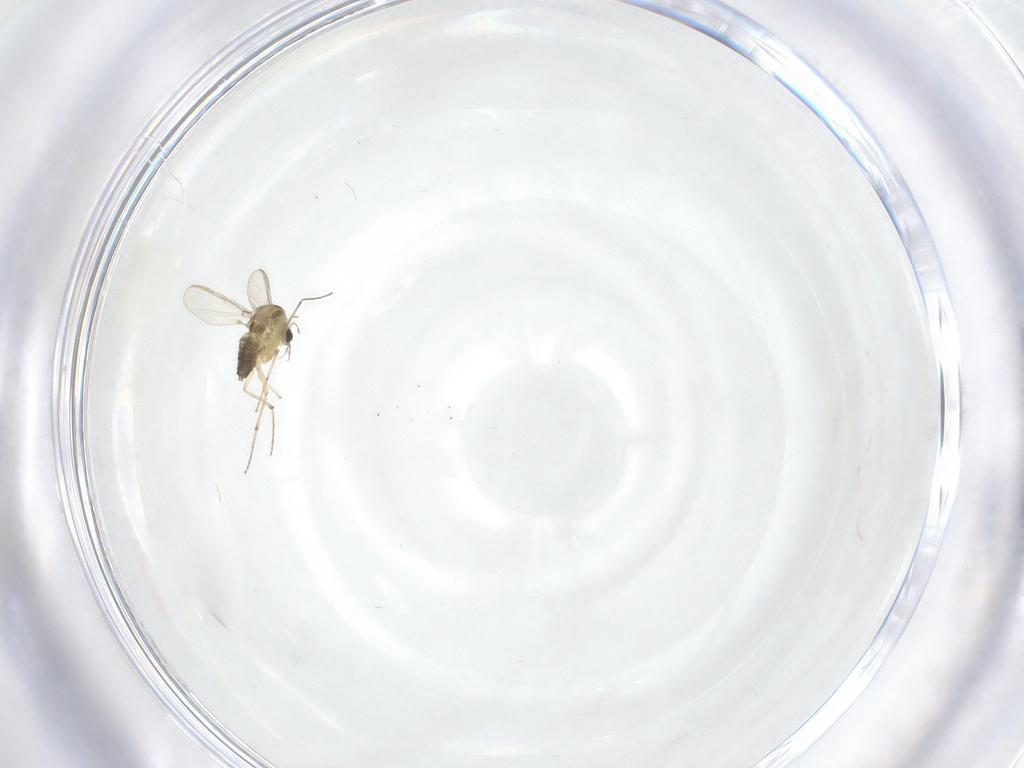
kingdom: Animalia
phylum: Arthropoda
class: Insecta
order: Diptera
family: Chironomidae
